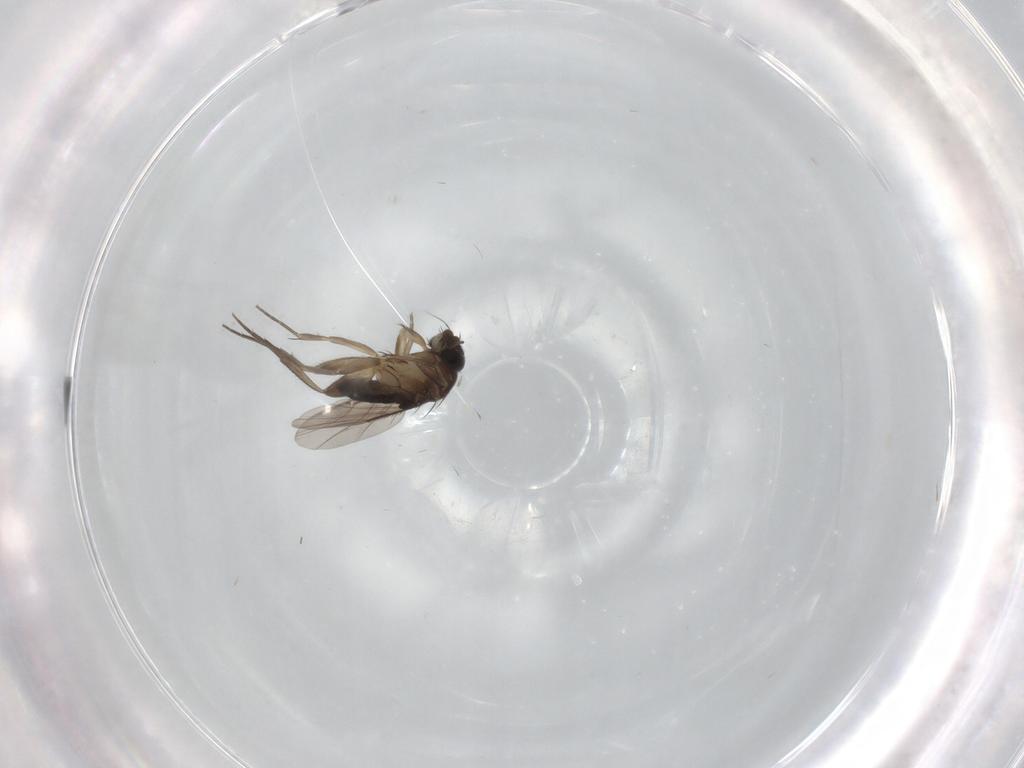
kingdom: Animalia
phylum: Arthropoda
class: Insecta
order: Diptera
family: Phoridae
